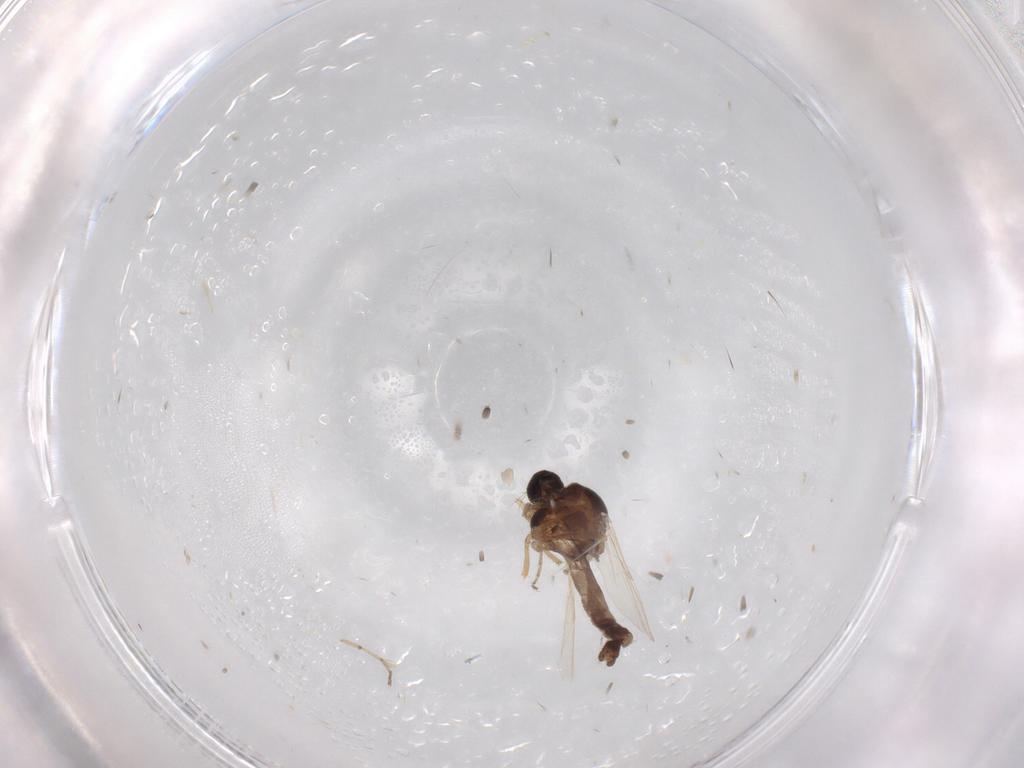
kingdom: Animalia
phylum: Arthropoda
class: Insecta
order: Diptera
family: Ceratopogonidae
